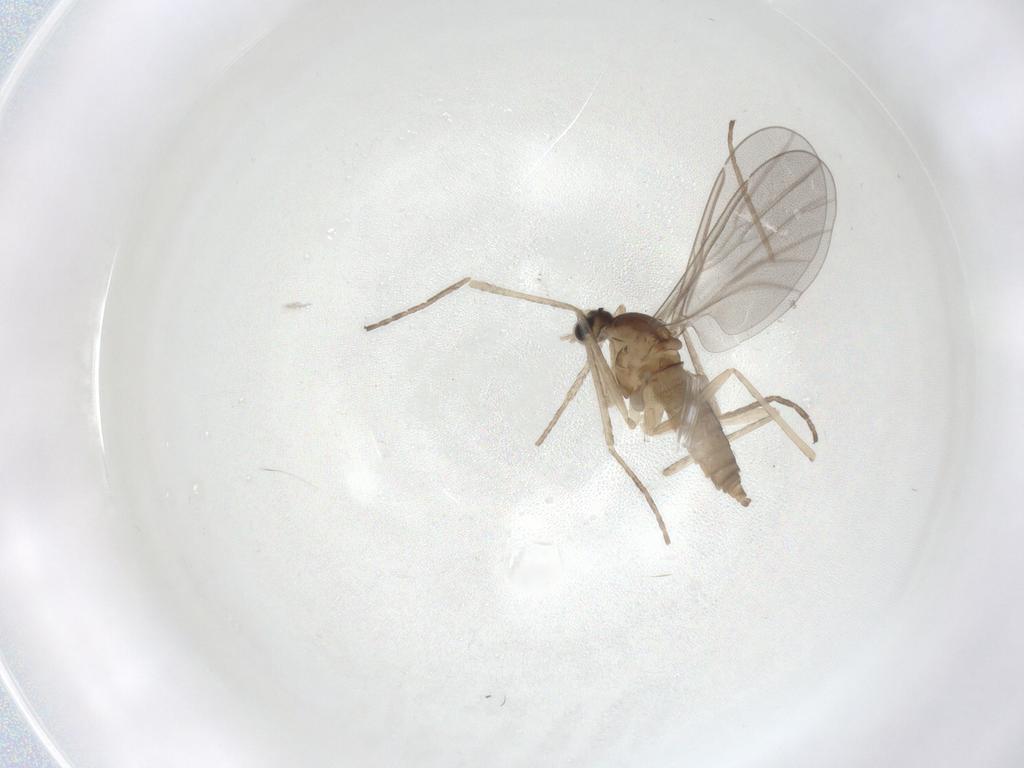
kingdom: Animalia
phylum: Arthropoda
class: Insecta
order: Diptera
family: Cecidomyiidae
